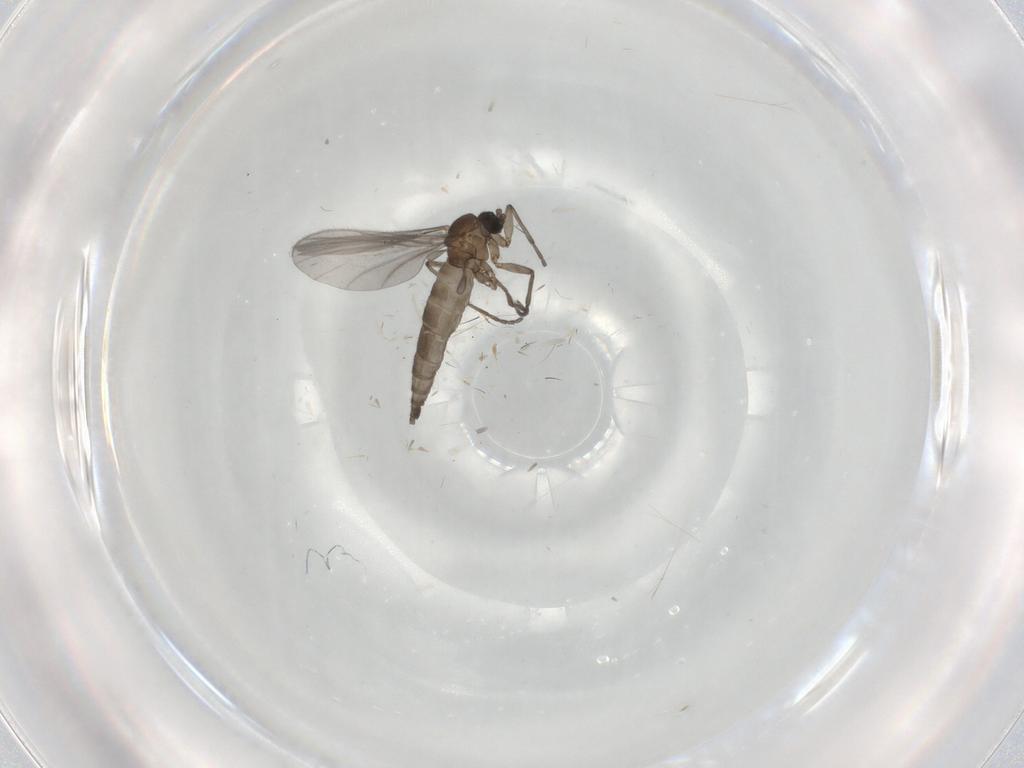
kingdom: Animalia
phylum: Arthropoda
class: Insecta
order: Diptera
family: Sciaridae
